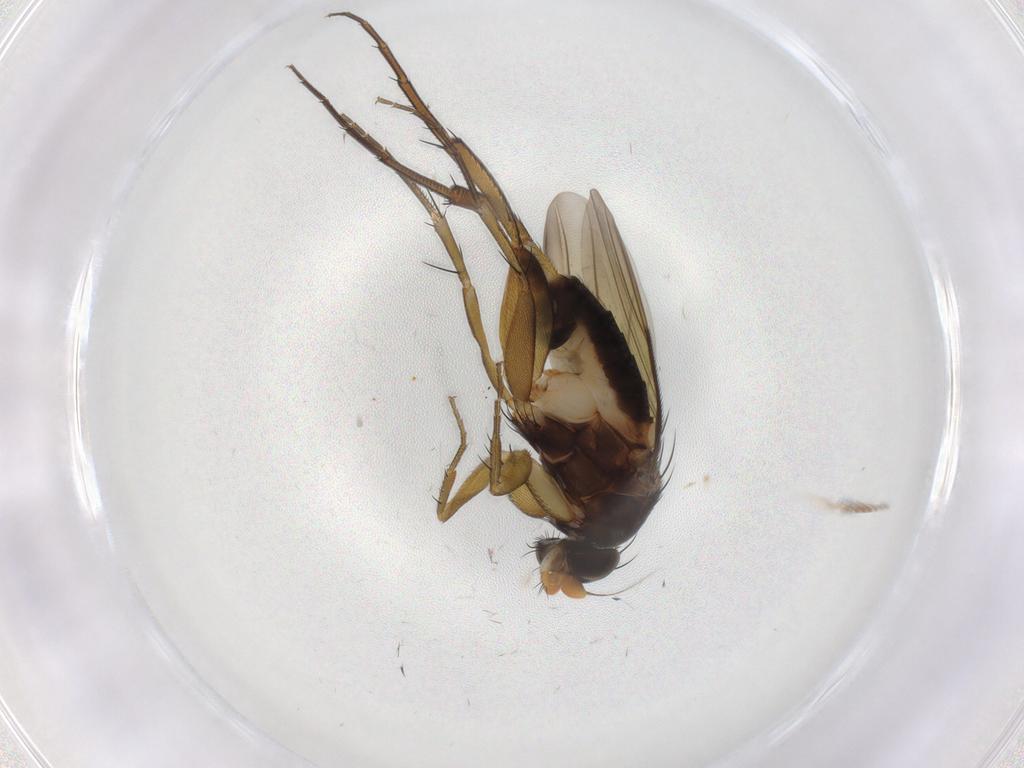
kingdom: Animalia
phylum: Arthropoda
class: Insecta
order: Diptera
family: Phoridae
